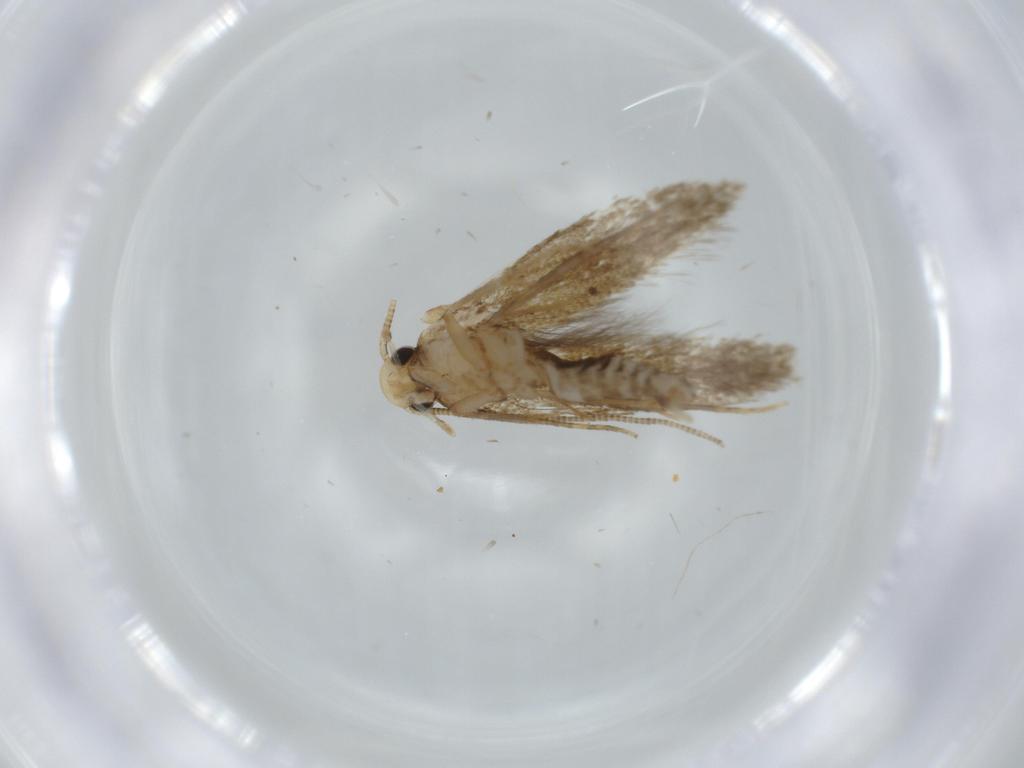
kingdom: Animalia
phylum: Arthropoda
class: Insecta
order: Lepidoptera
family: Tineidae
